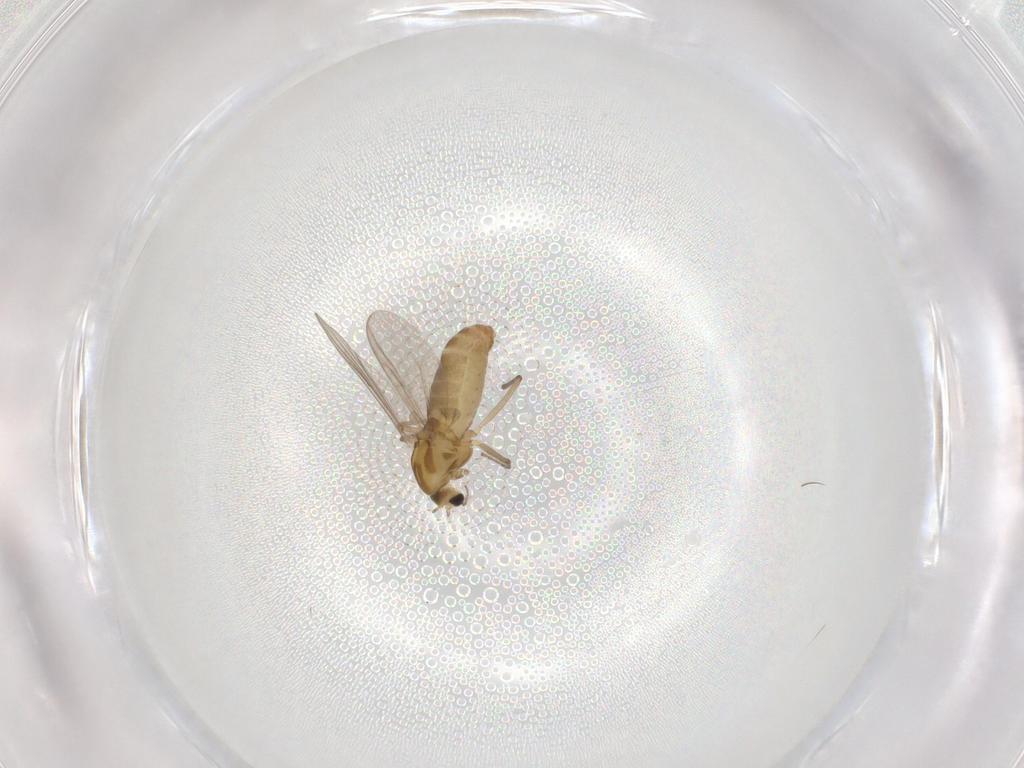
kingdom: Animalia
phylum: Arthropoda
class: Insecta
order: Diptera
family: Chironomidae
